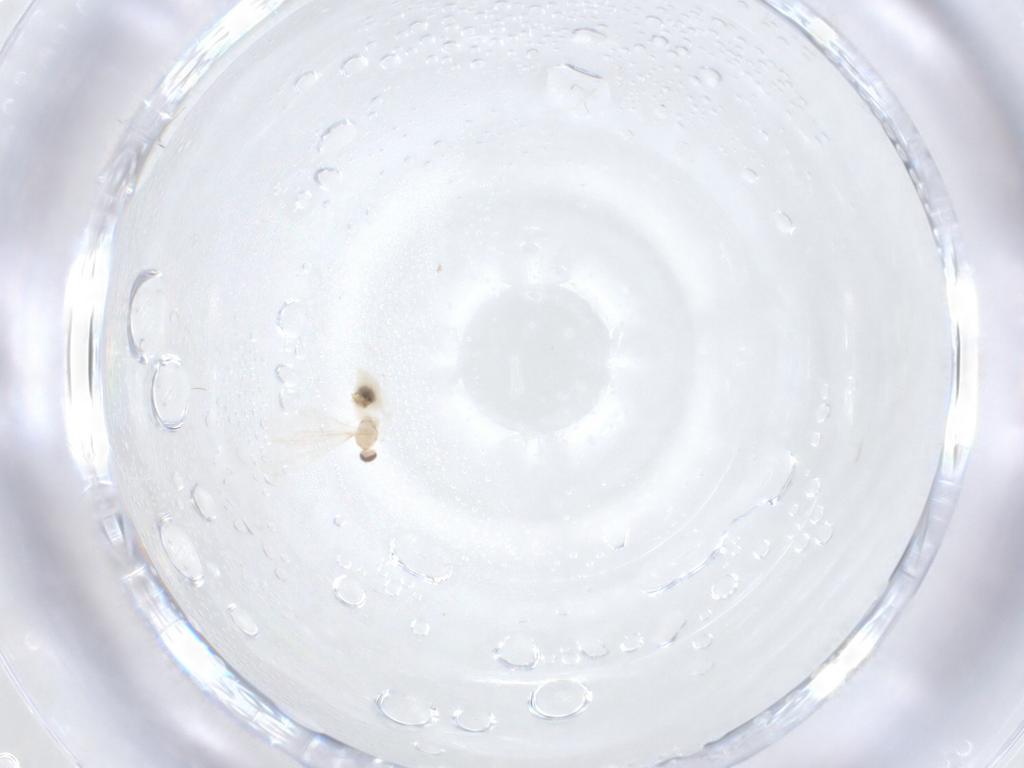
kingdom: Animalia
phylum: Arthropoda
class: Insecta
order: Diptera
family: Cecidomyiidae
